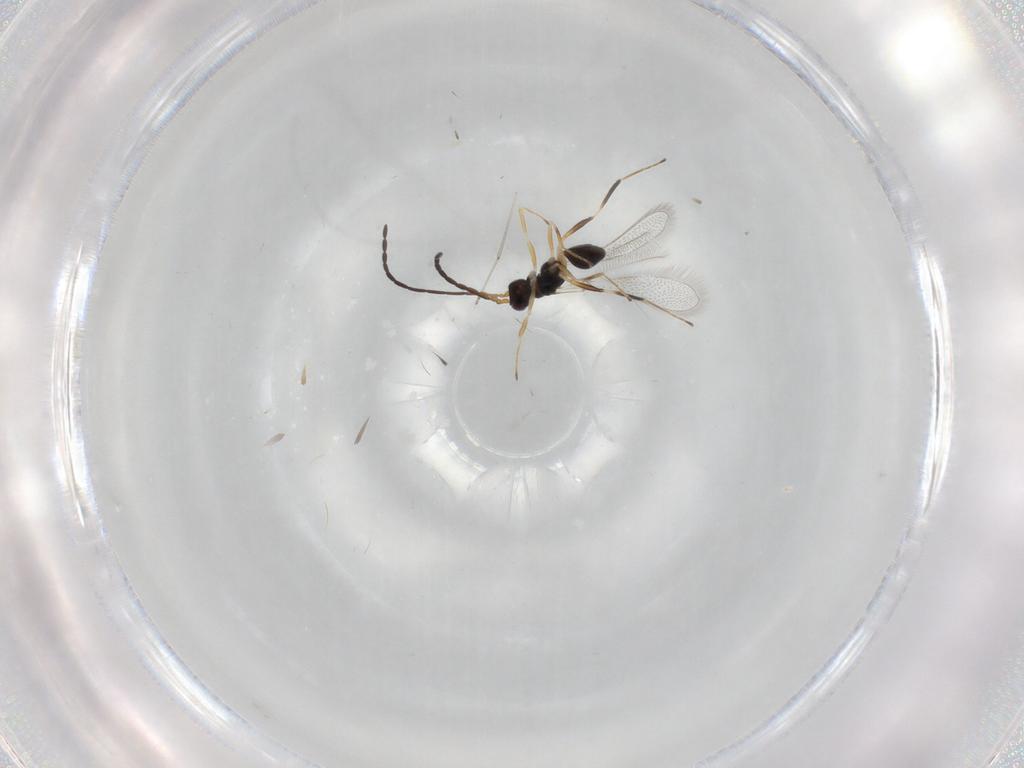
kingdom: Animalia
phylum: Arthropoda
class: Insecta
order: Hymenoptera
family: Mymaridae
